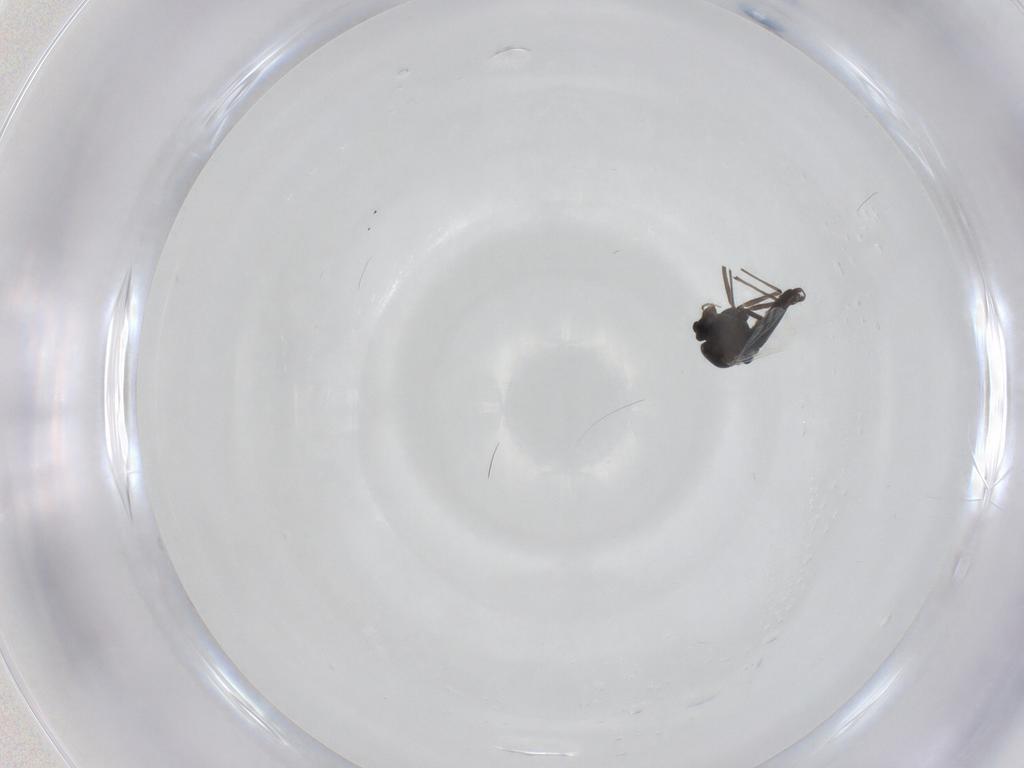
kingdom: Animalia
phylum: Arthropoda
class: Insecta
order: Diptera
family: Chironomidae
